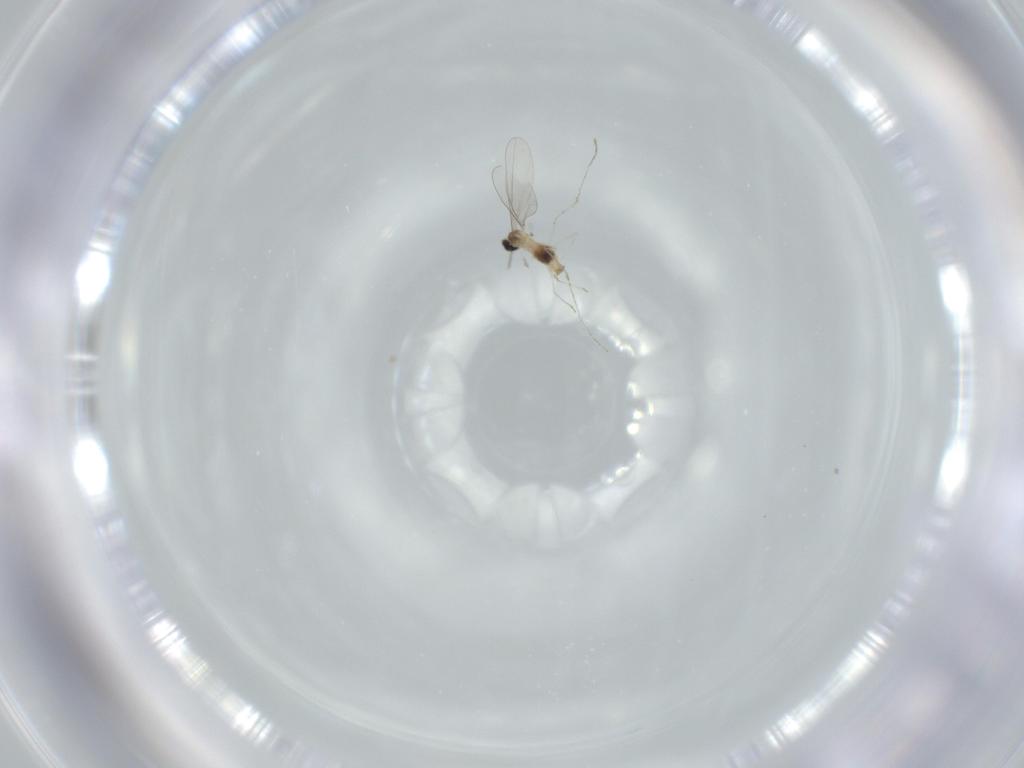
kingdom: Animalia
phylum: Arthropoda
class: Insecta
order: Diptera
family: Cecidomyiidae
